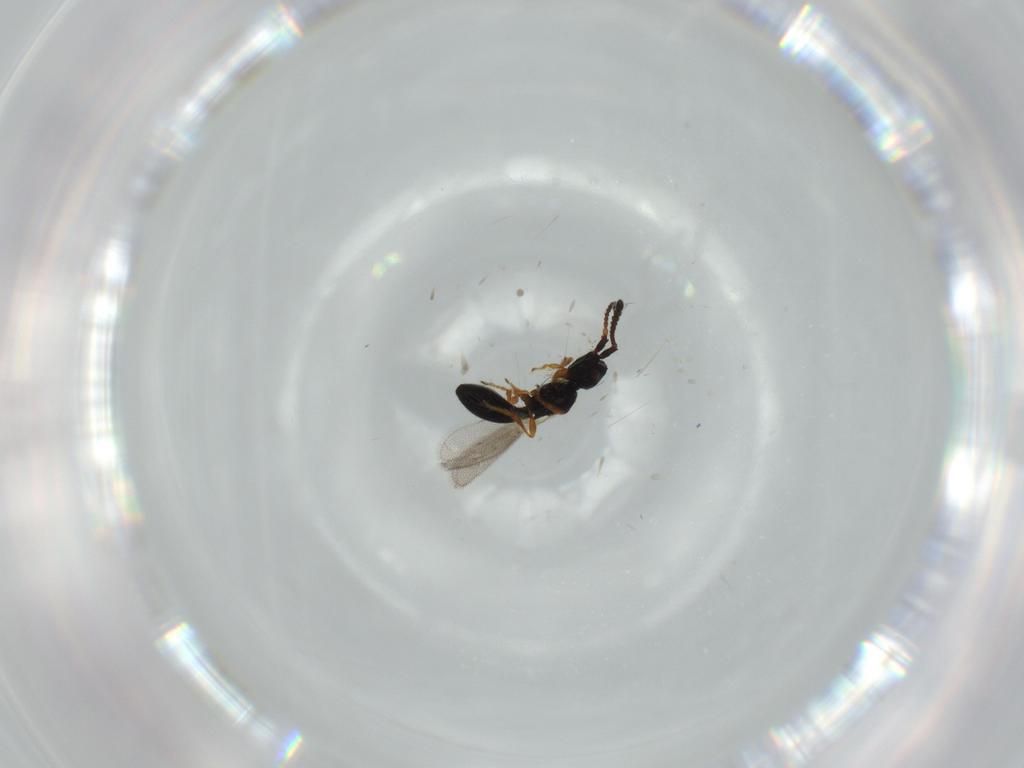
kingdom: Animalia
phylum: Arthropoda
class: Insecta
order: Hymenoptera
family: Diapriidae
